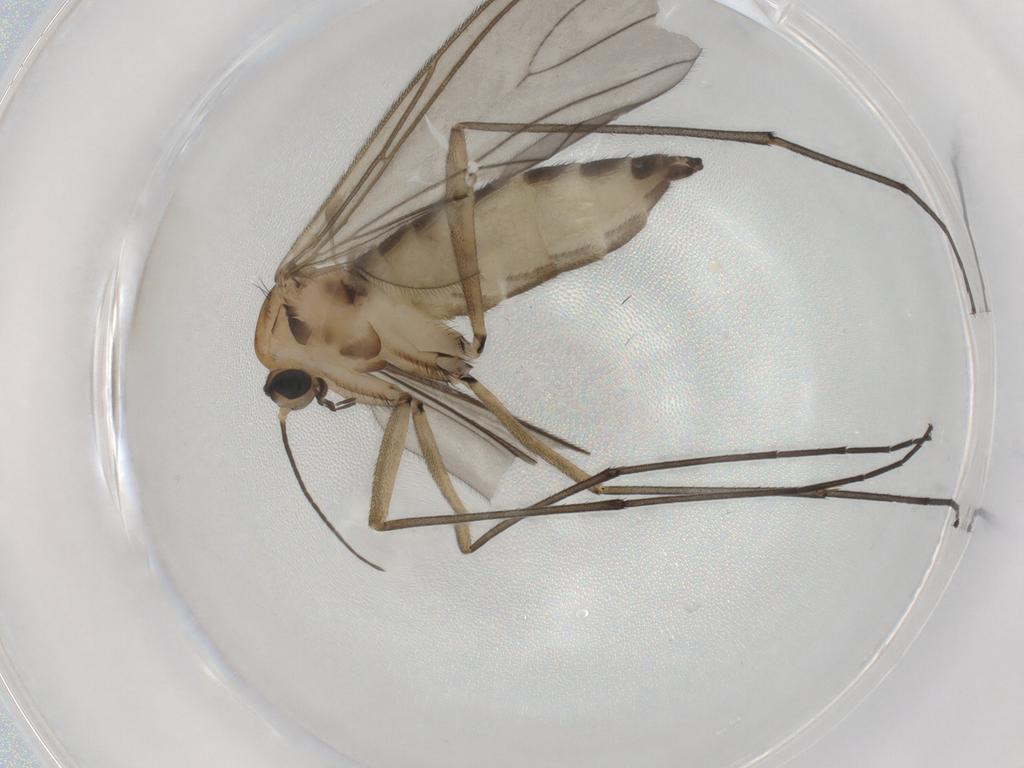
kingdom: Animalia
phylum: Arthropoda
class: Insecta
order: Diptera
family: Sciaridae
